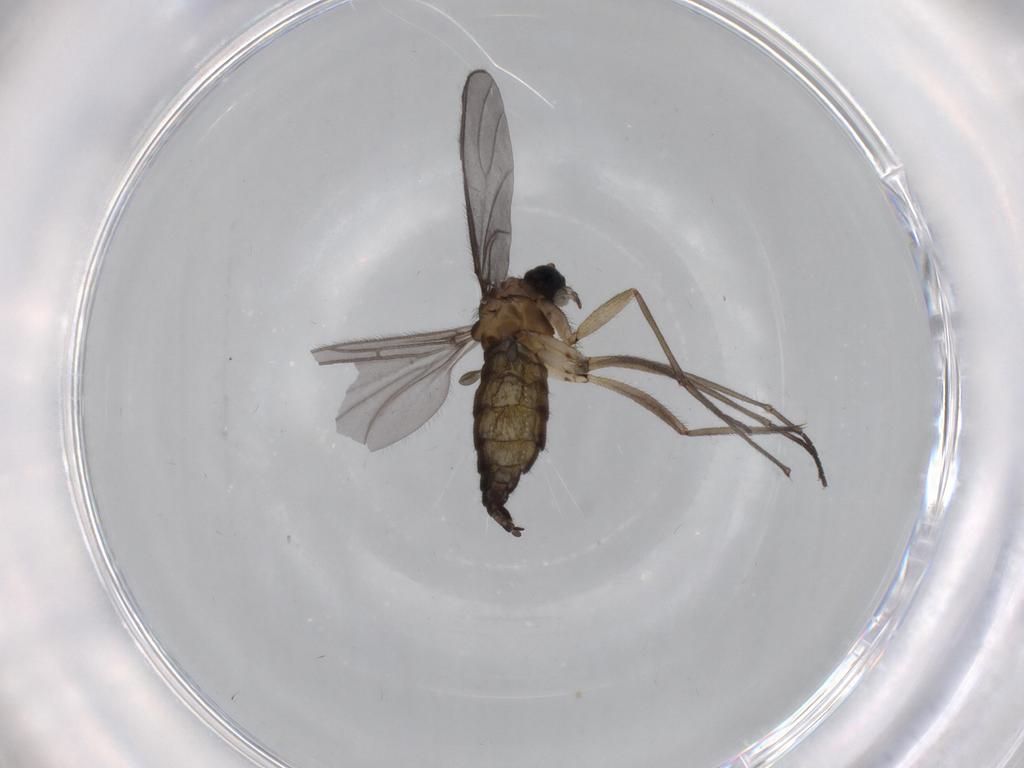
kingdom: Animalia
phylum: Arthropoda
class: Insecta
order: Diptera
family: Sciaridae
